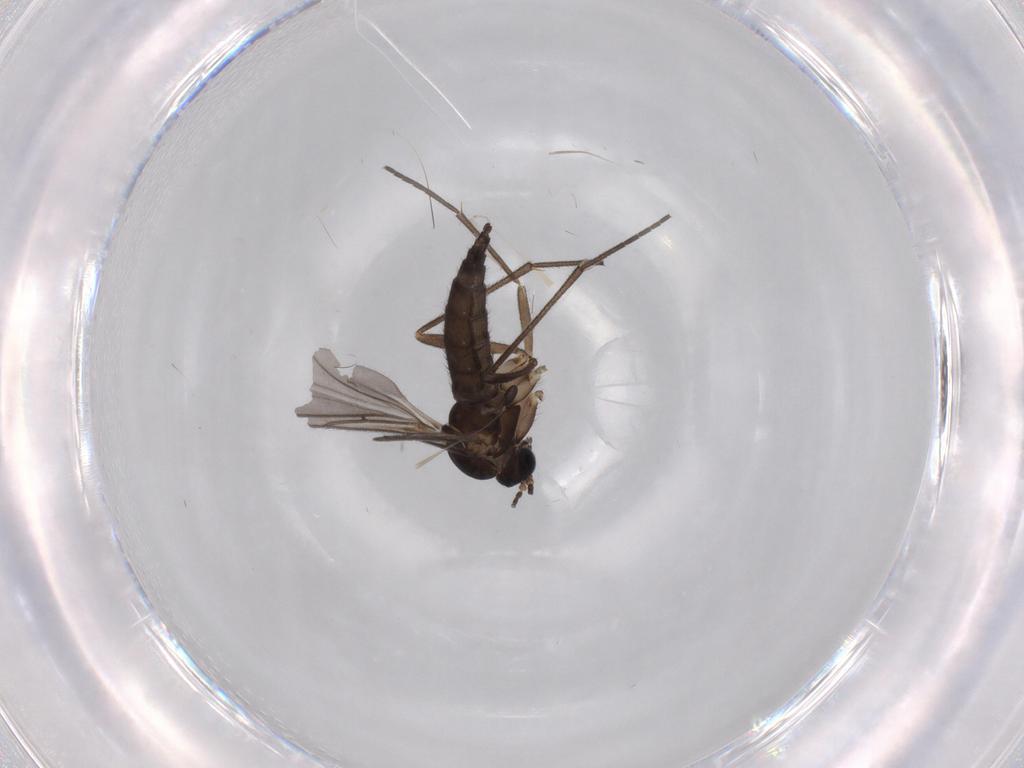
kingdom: Animalia
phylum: Arthropoda
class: Insecta
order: Diptera
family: Sciaridae
